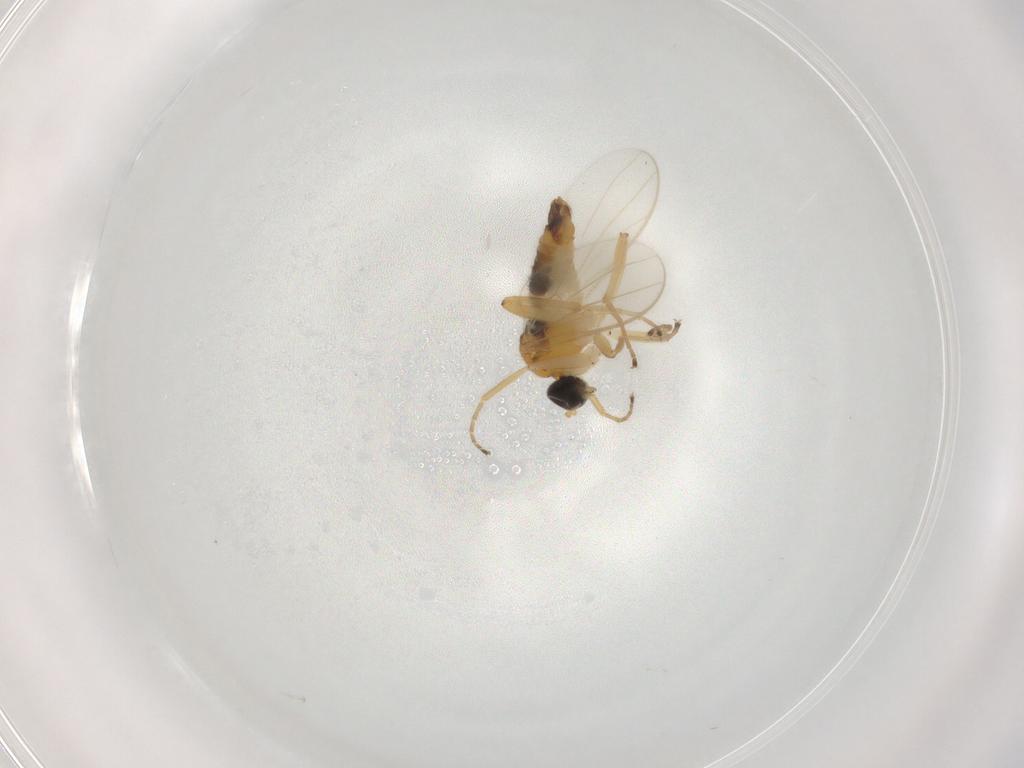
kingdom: Animalia
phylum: Arthropoda
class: Insecta
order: Diptera
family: Hybotidae
